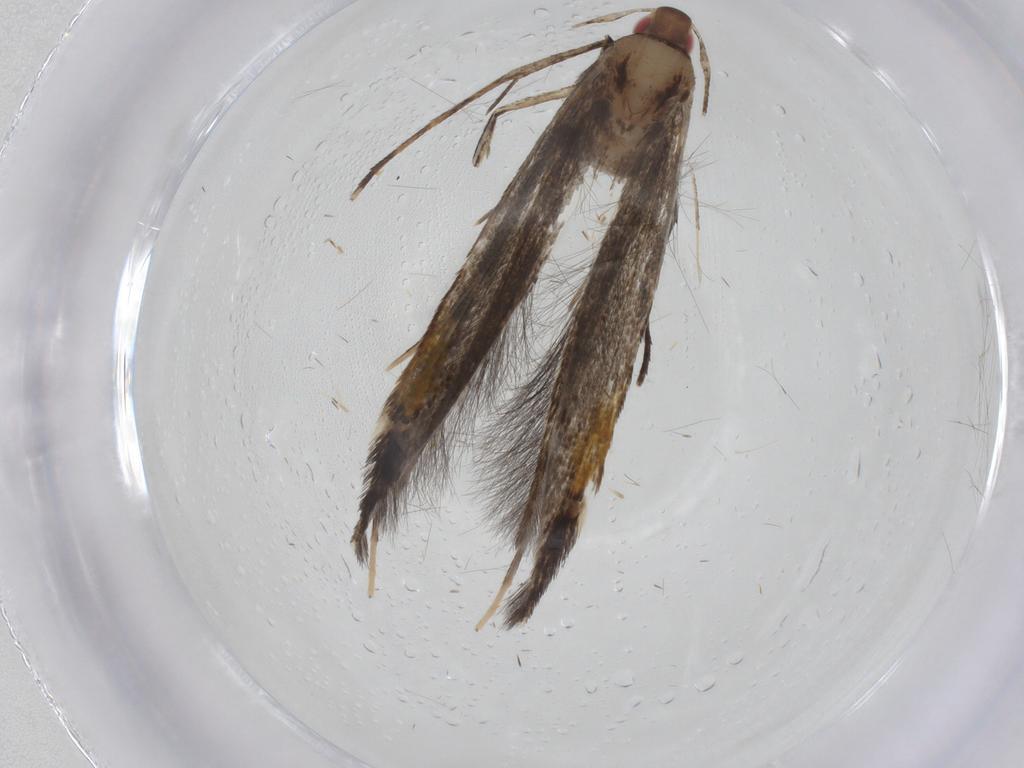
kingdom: Animalia
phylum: Arthropoda
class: Insecta
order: Lepidoptera
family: Cosmopterigidae
